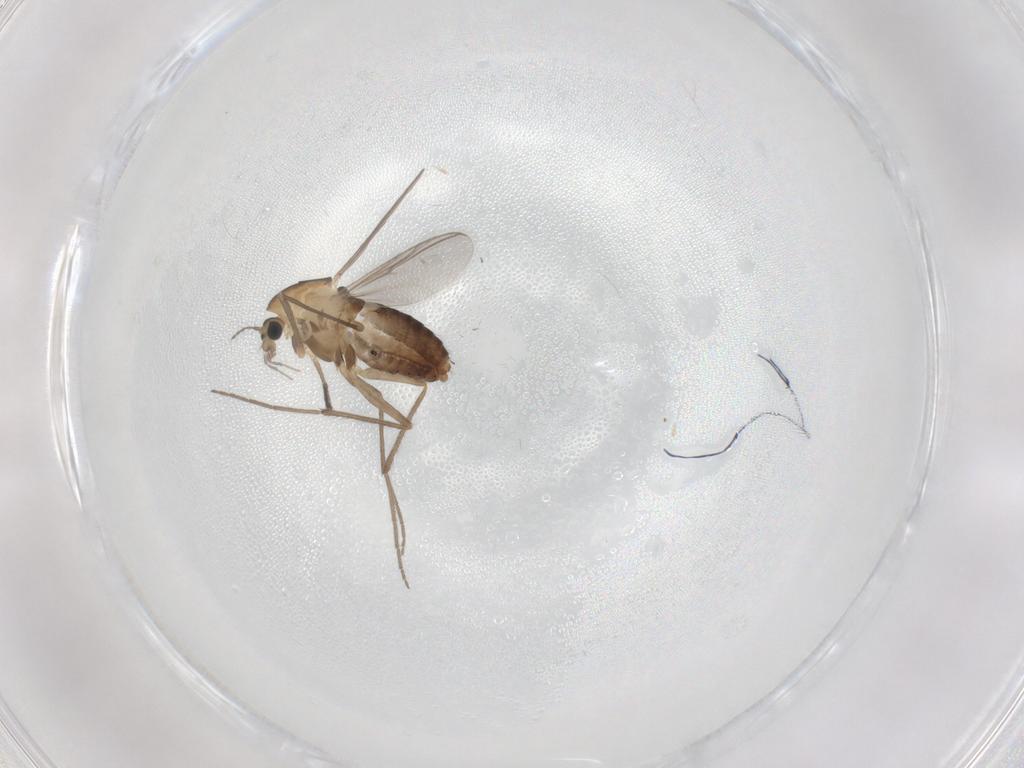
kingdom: Animalia
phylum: Arthropoda
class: Insecta
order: Diptera
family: Chironomidae
